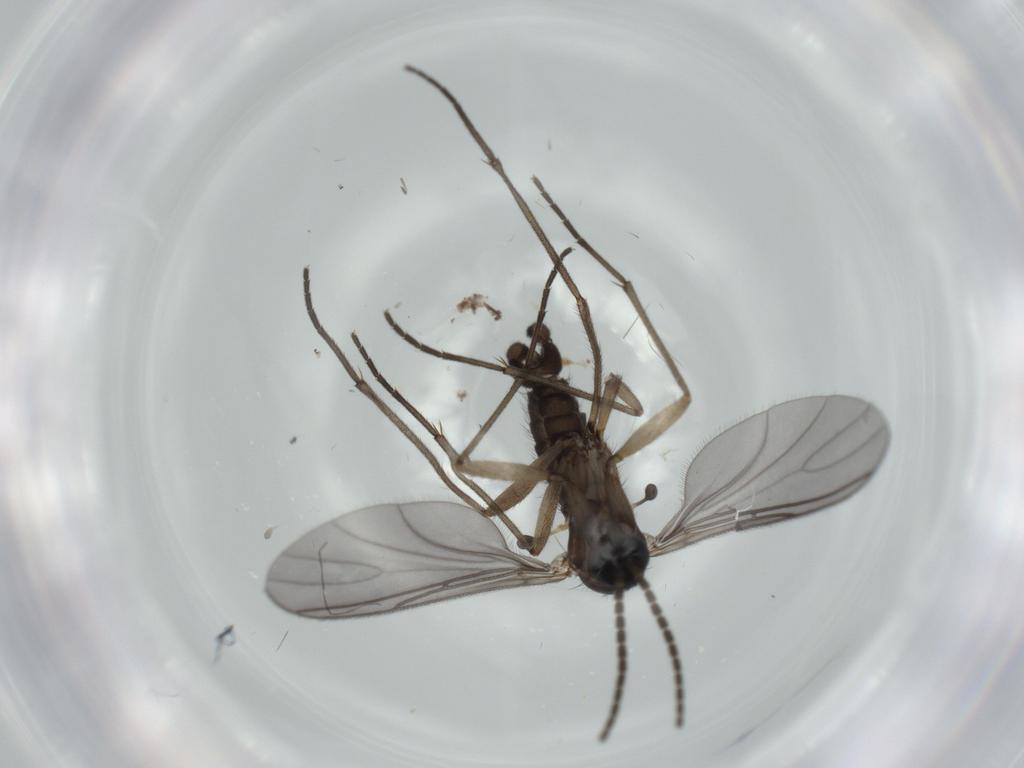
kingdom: Animalia
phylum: Arthropoda
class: Insecta
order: Diptera
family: Sciaridae
